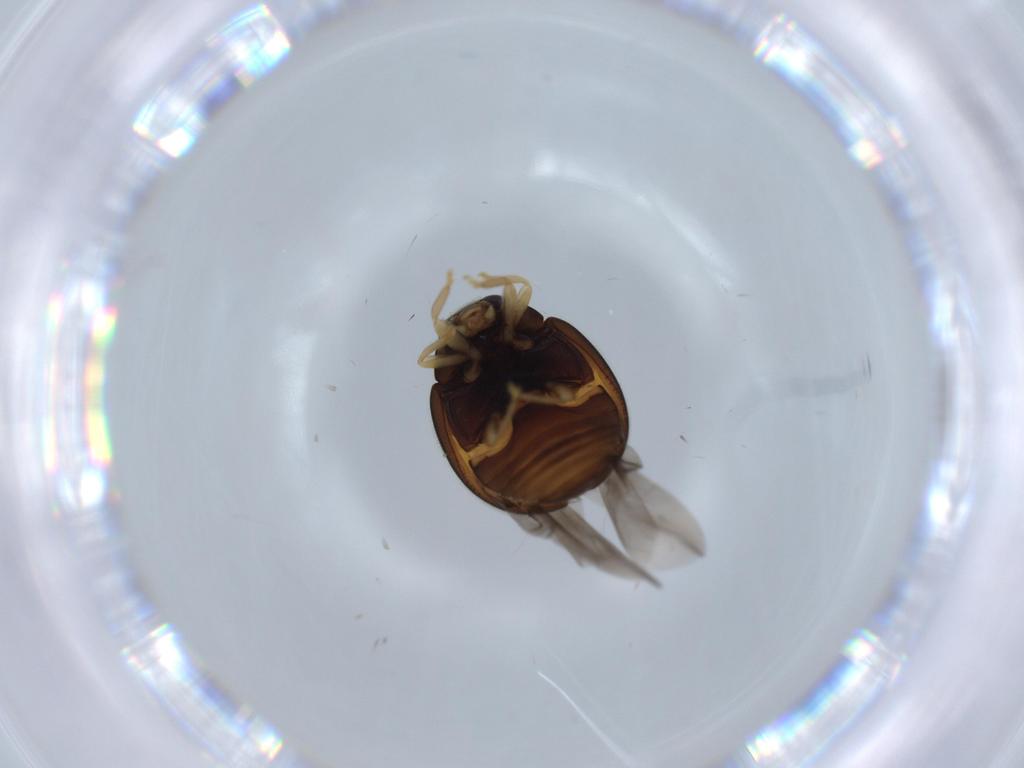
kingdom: Animalia
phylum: Arthropoda
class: Insecta
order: Coleoptera
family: Coccinellidae
